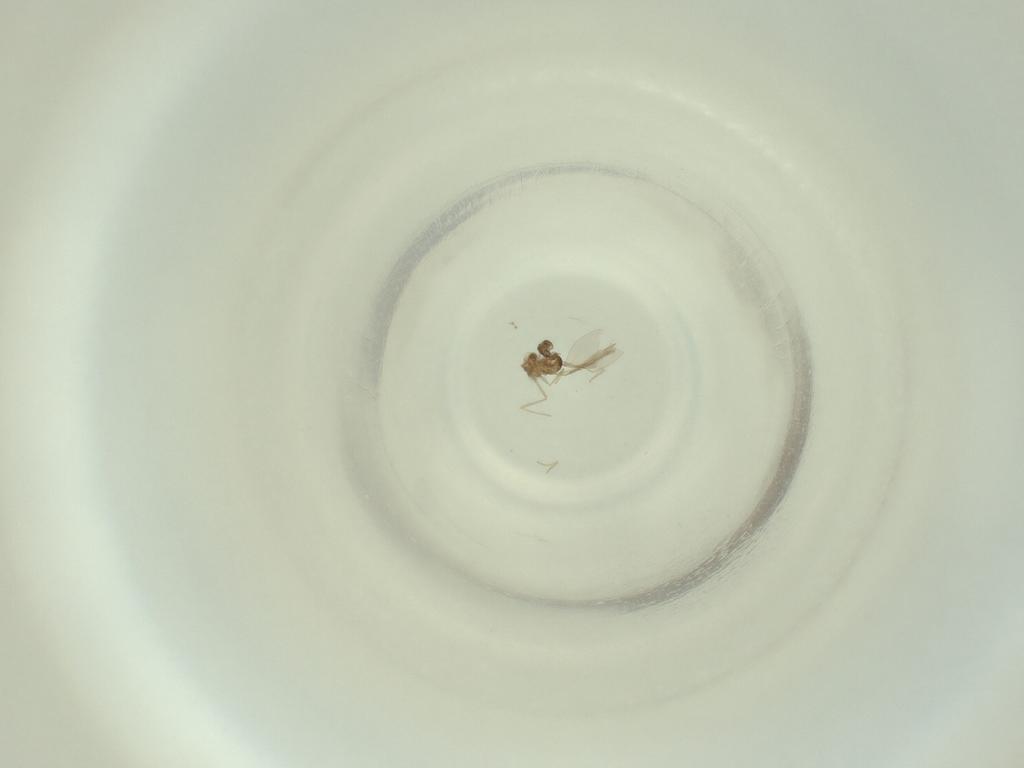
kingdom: Animalia
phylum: Arthropoda
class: Insecta
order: Diptera
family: Cecidomyiidae
